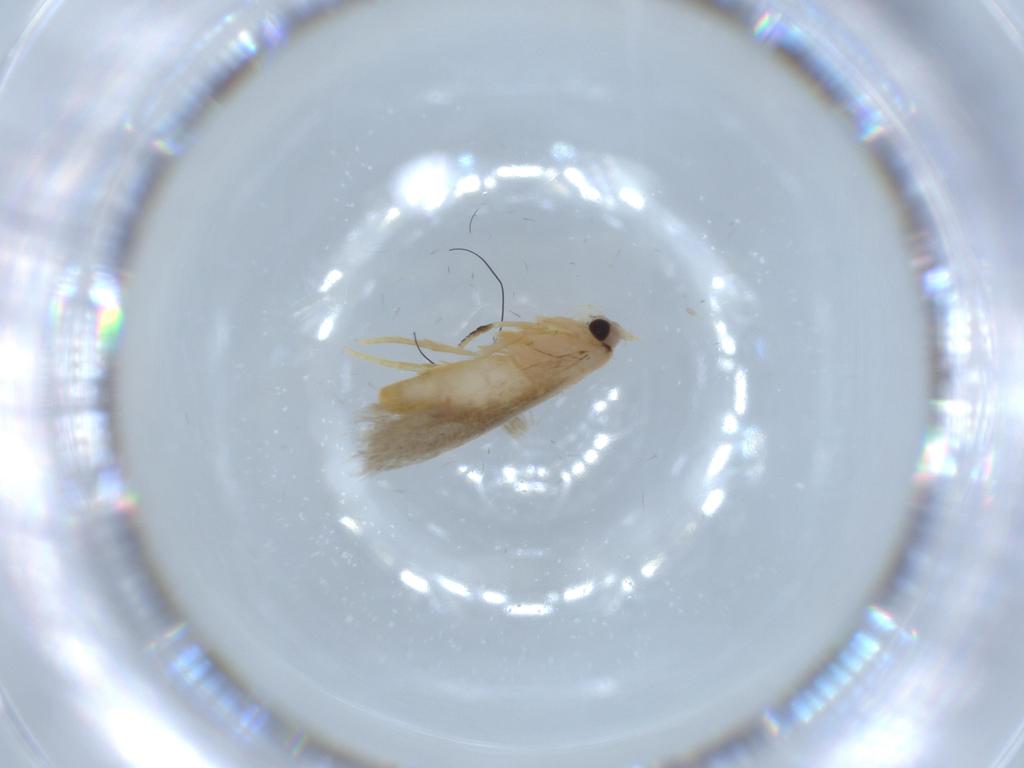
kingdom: Animalia
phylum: Arthropoda
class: Insecta
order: Lepidoptera
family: Nepticulidae
